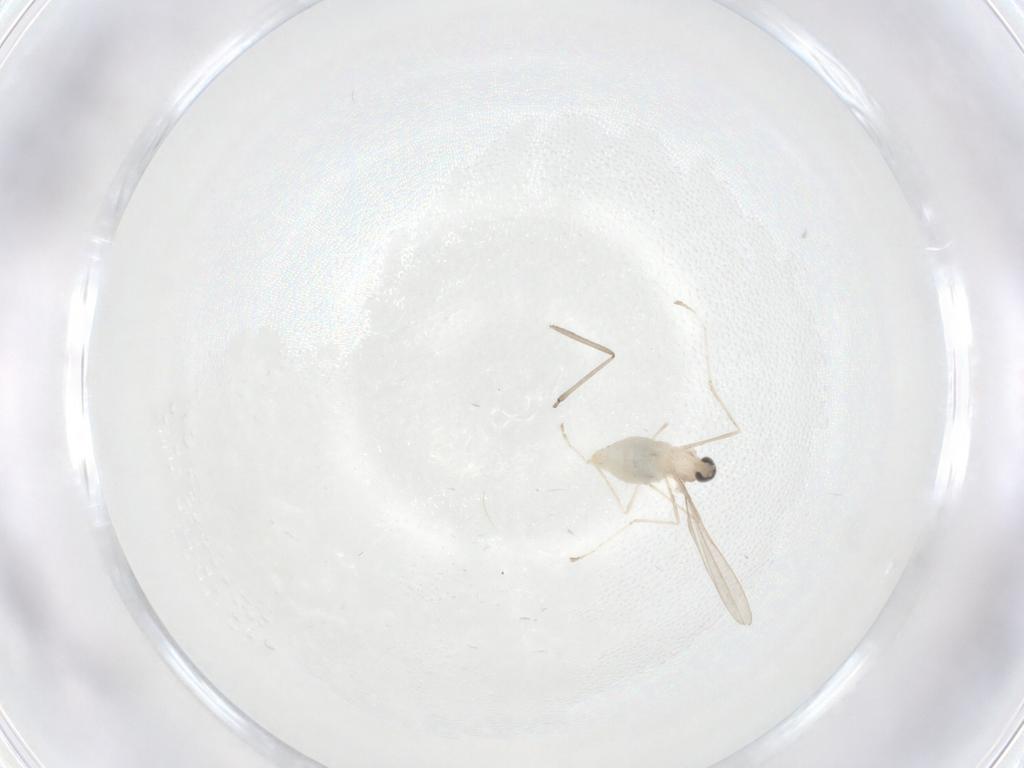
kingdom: Animalia
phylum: Arthropoda
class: Insecta
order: Diptera
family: Cecidomyiidae
